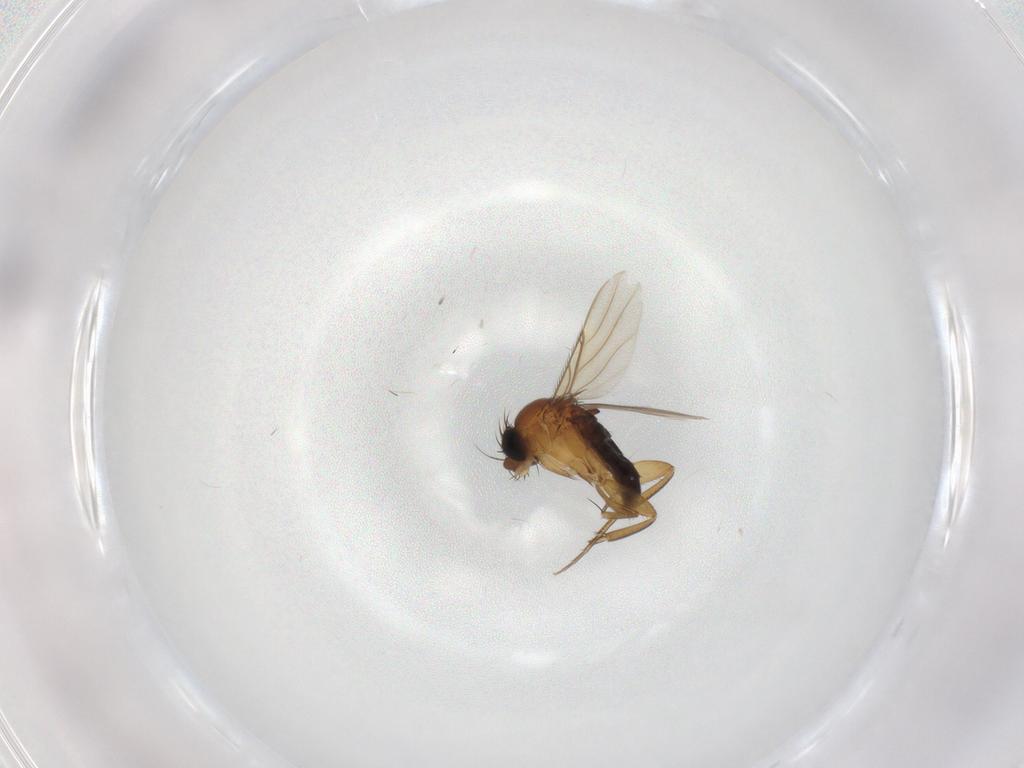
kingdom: Animalia
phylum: Arthropoda
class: Insecta
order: Diptera
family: Phoridae
